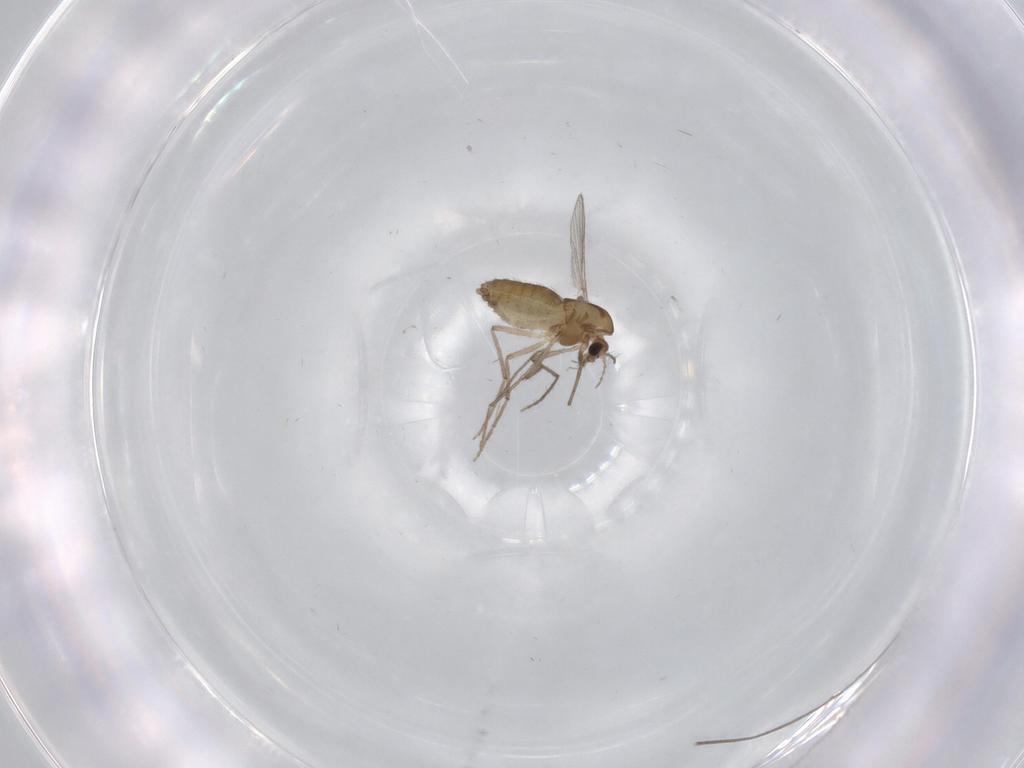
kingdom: Animalia
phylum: Arthropoda
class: Insecta
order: Diptera
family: Chironomidae
